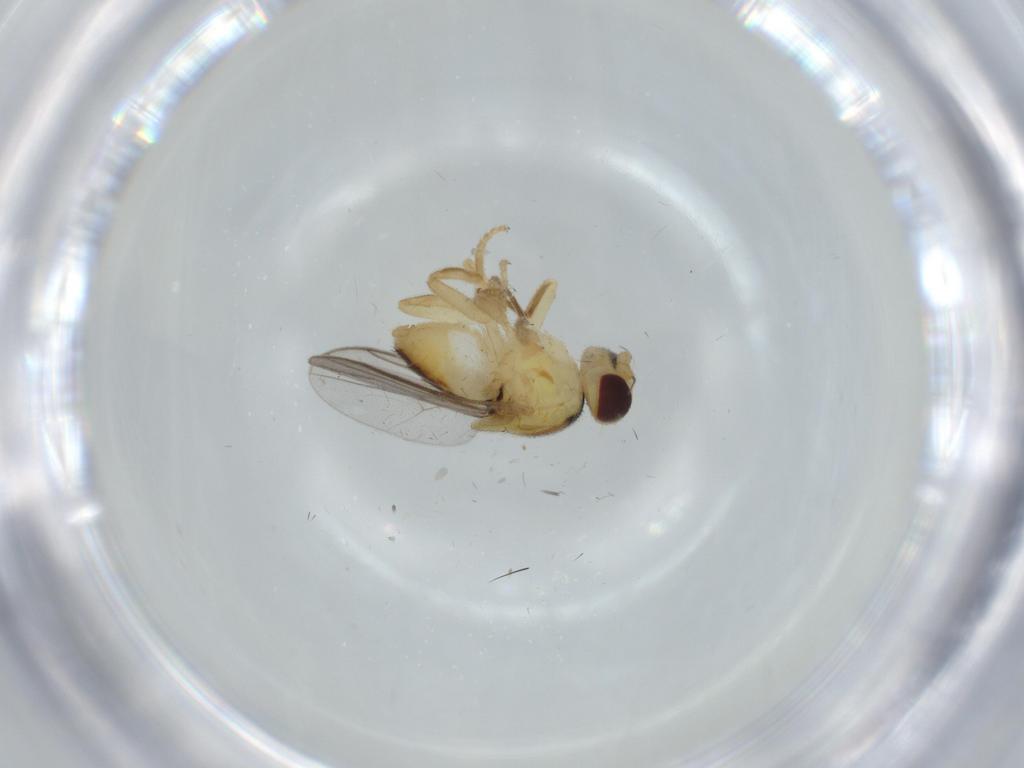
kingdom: Animalia
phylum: Arthropoda
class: Insecta
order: Diptera
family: Chloropidae
